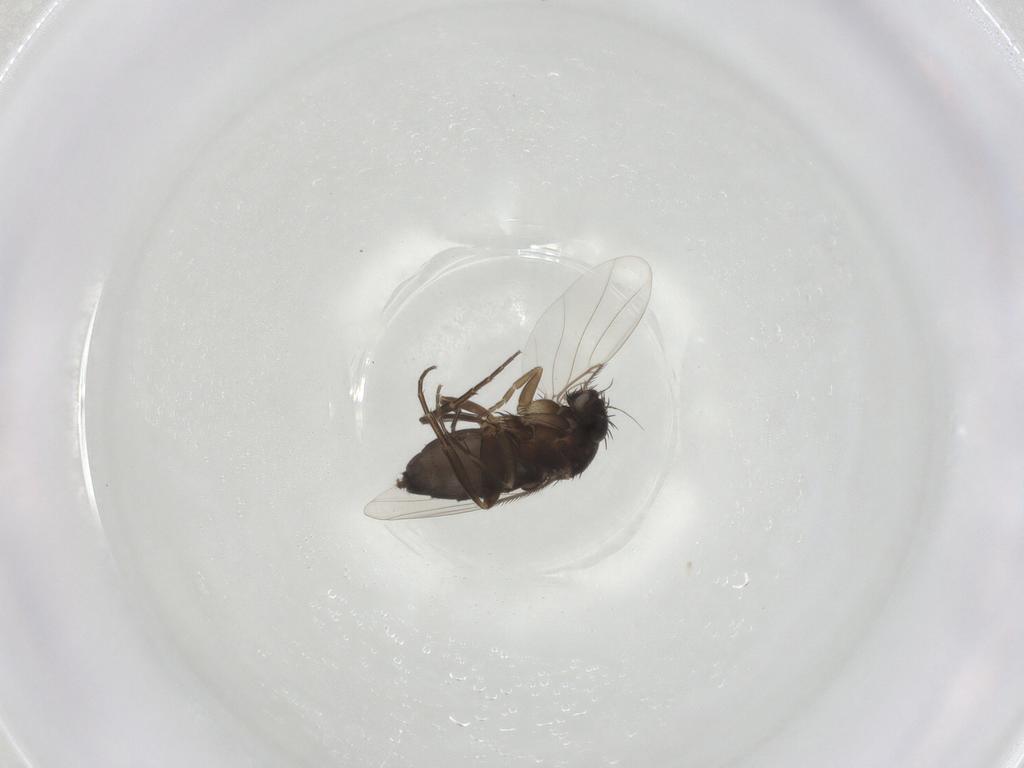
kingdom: Animalia
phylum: Arthropoda
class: Insecta
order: Diptera
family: Phoridae
